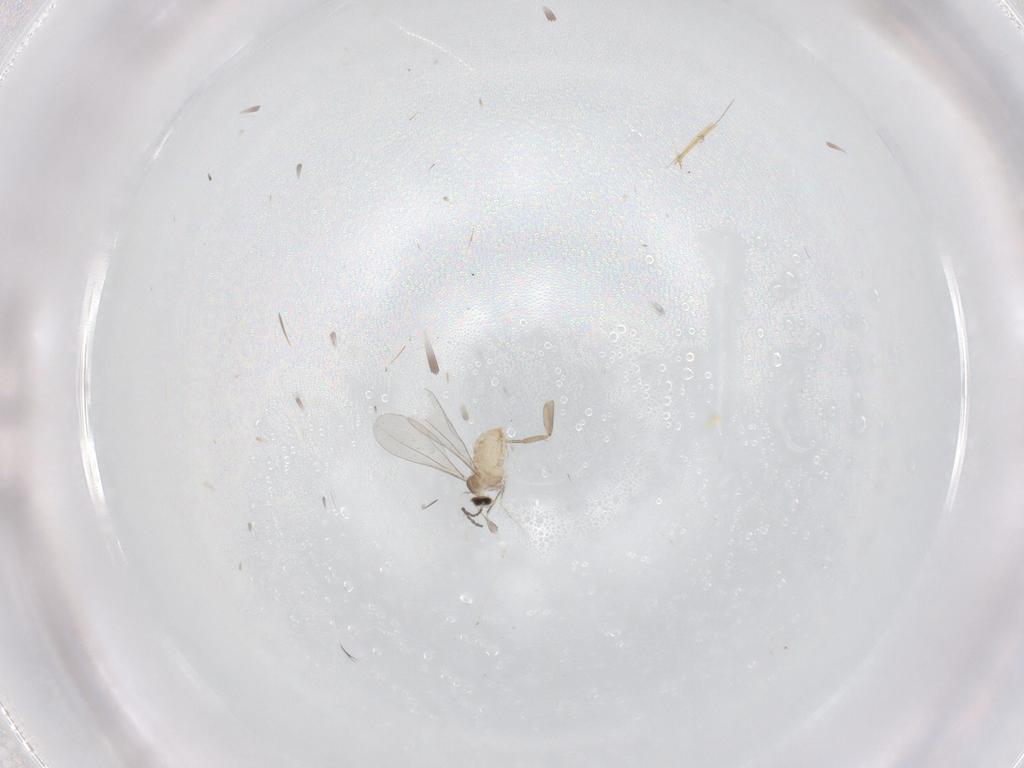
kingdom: Animalia
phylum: Arthropoda
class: Insecta
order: Diptera
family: Phoridae
